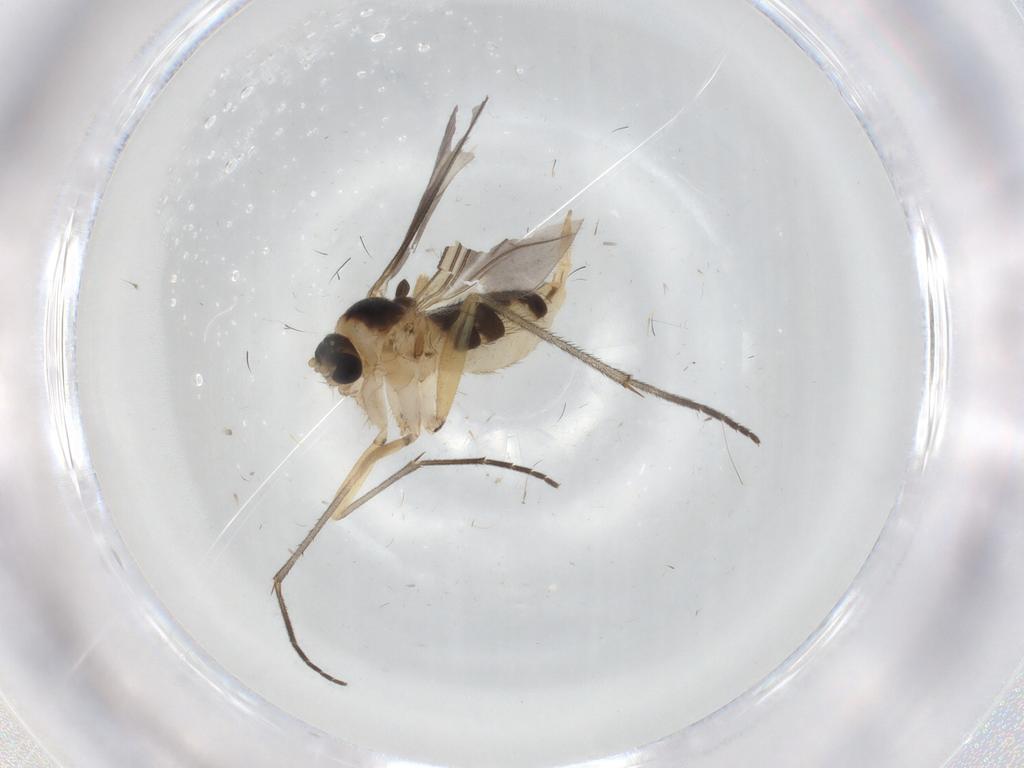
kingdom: Animalia
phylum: Arthropoda
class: Insecta
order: Diptera
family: Sciaridae
